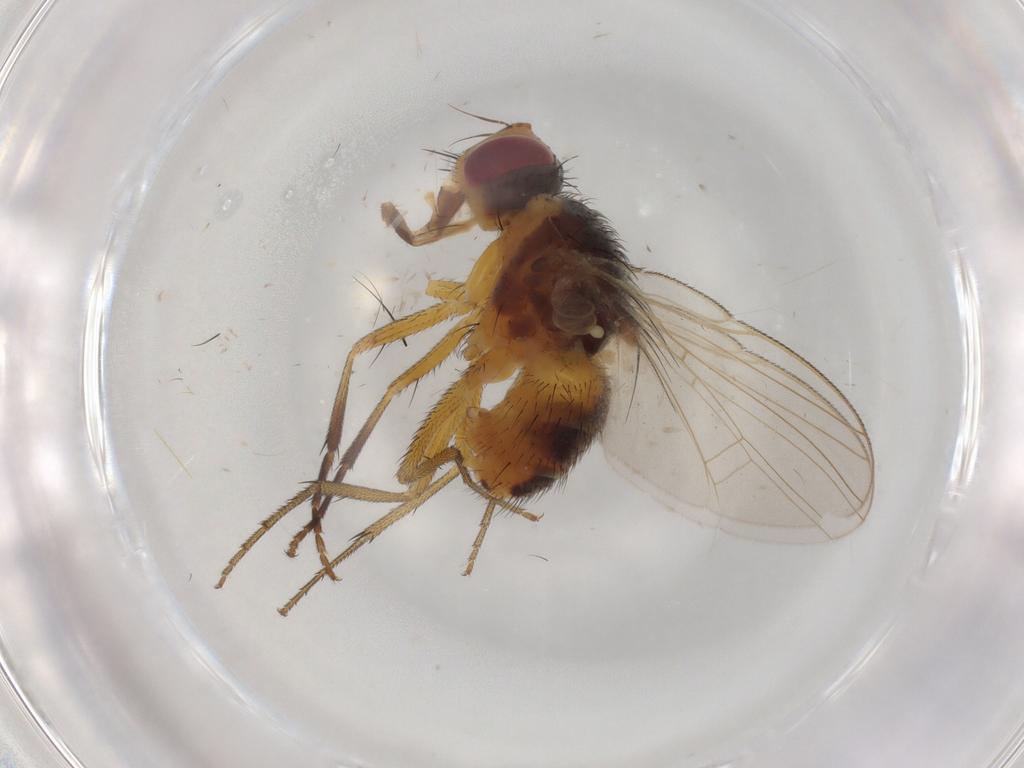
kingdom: Animalia
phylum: Arthropoda
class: Insecta
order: Diptera
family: Muscidae
